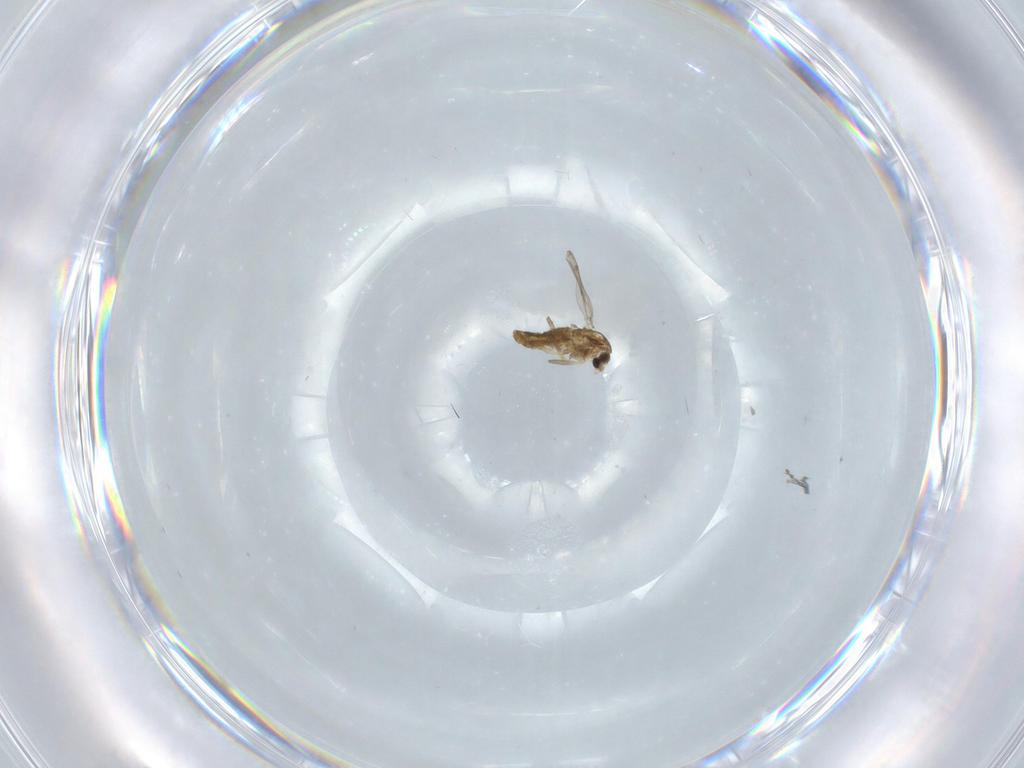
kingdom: Animalia
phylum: Arthropoda
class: Insecta
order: Diptera
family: Chironomidae
